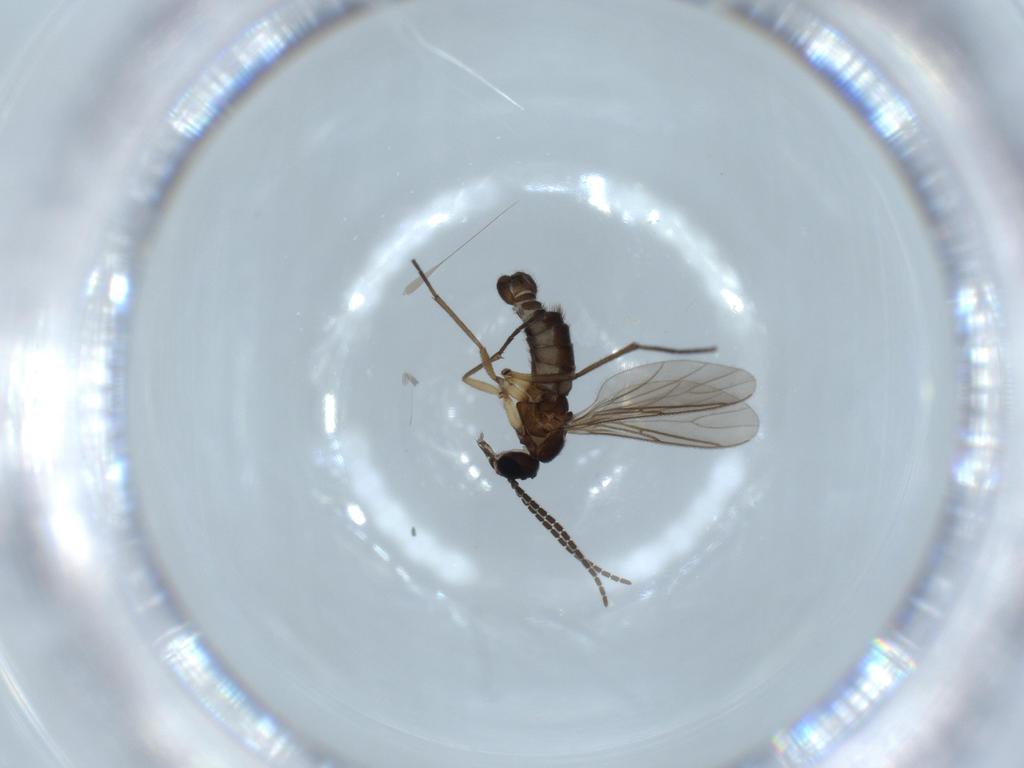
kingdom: Animalia
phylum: Arthropoda
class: Insecta
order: Diptera
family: Sciaridae
